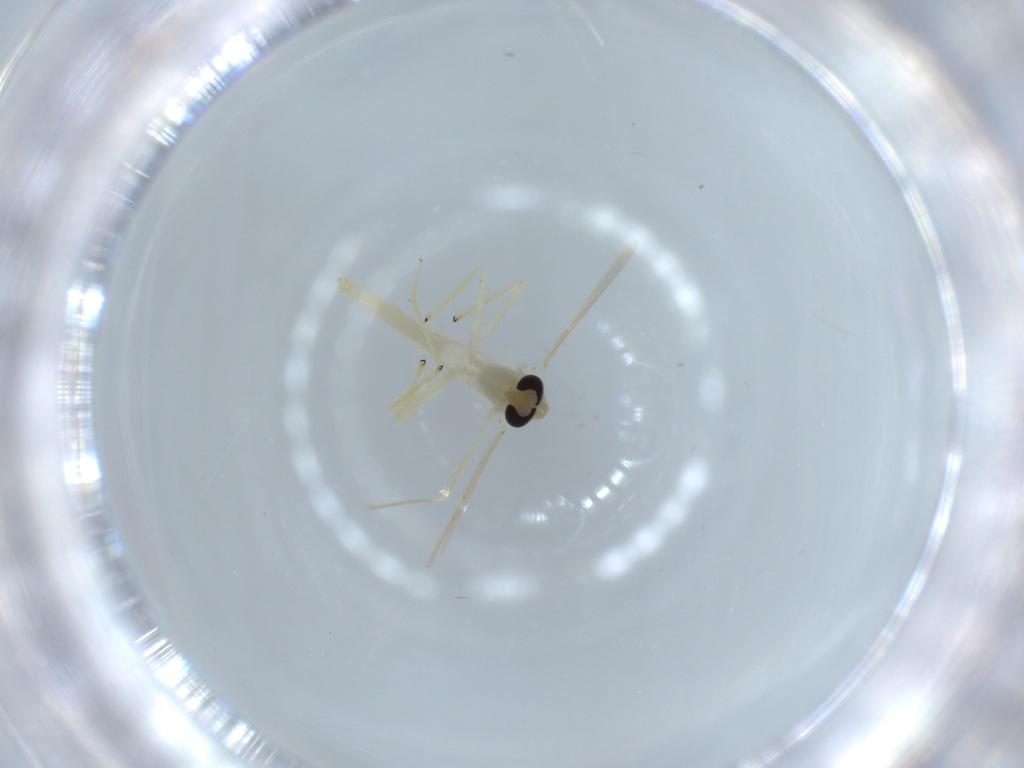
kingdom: Animalia
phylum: Arthropoda
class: Insecta
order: Diptera
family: Chironomidae
